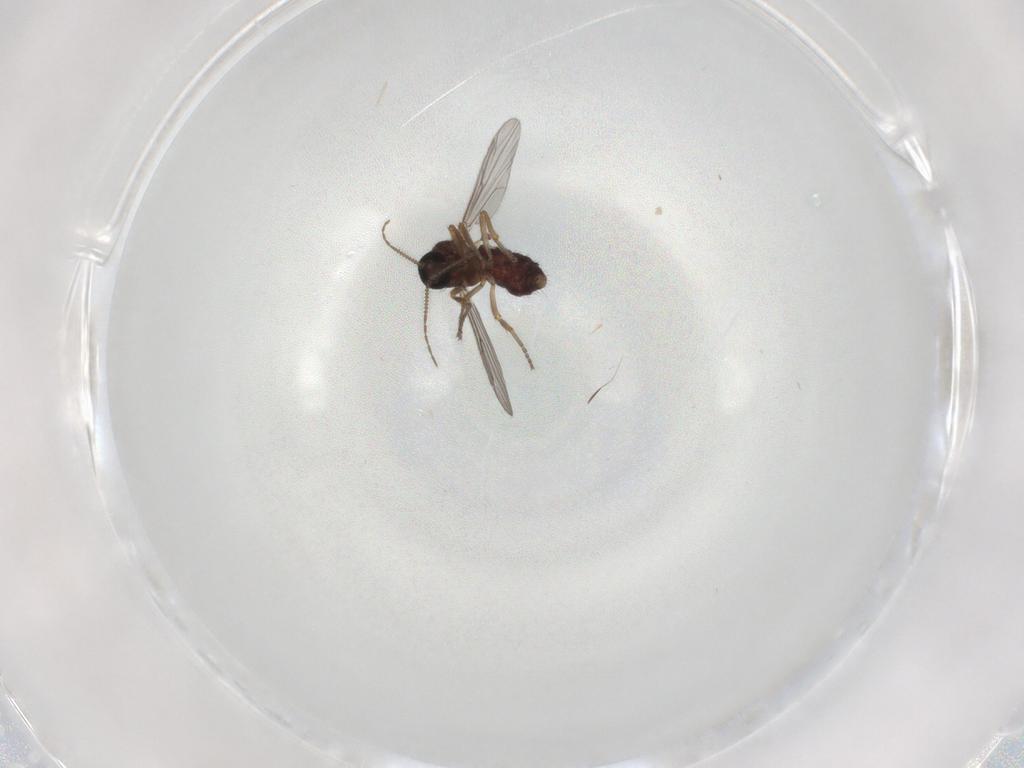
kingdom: Animalia
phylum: Arthropoda
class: Insecta
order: Diptera
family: Ceratopogonidae
